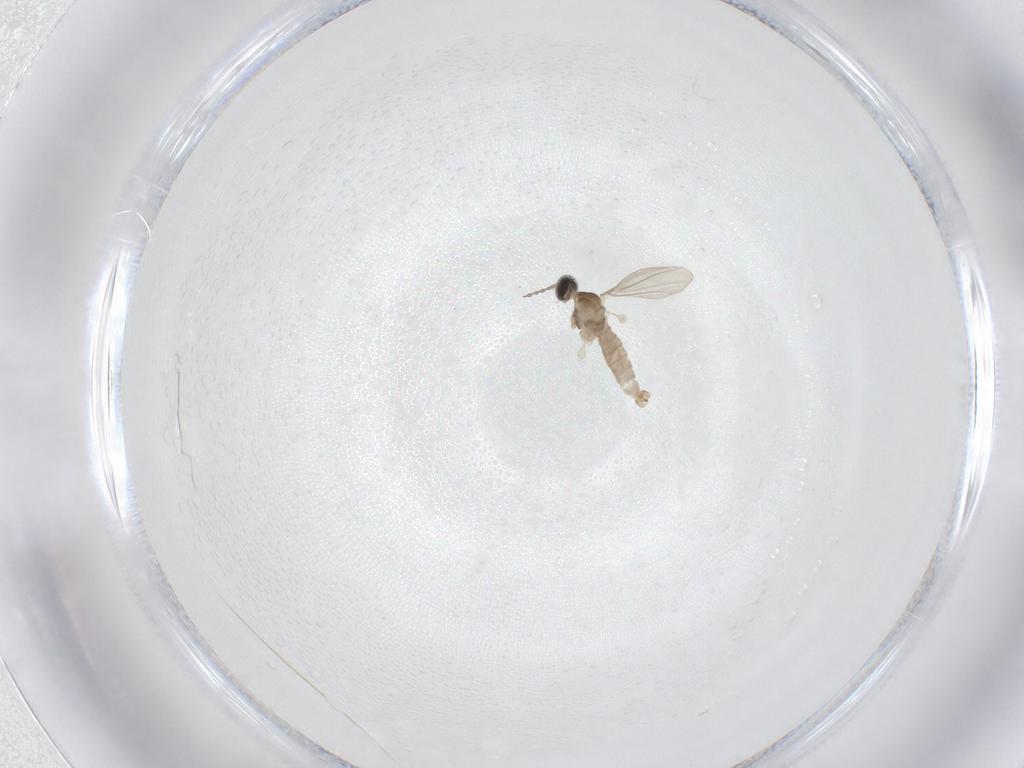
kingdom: Animalia
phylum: Arthropoda
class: Insecta
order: Diptera
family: Cecidomyiidae
